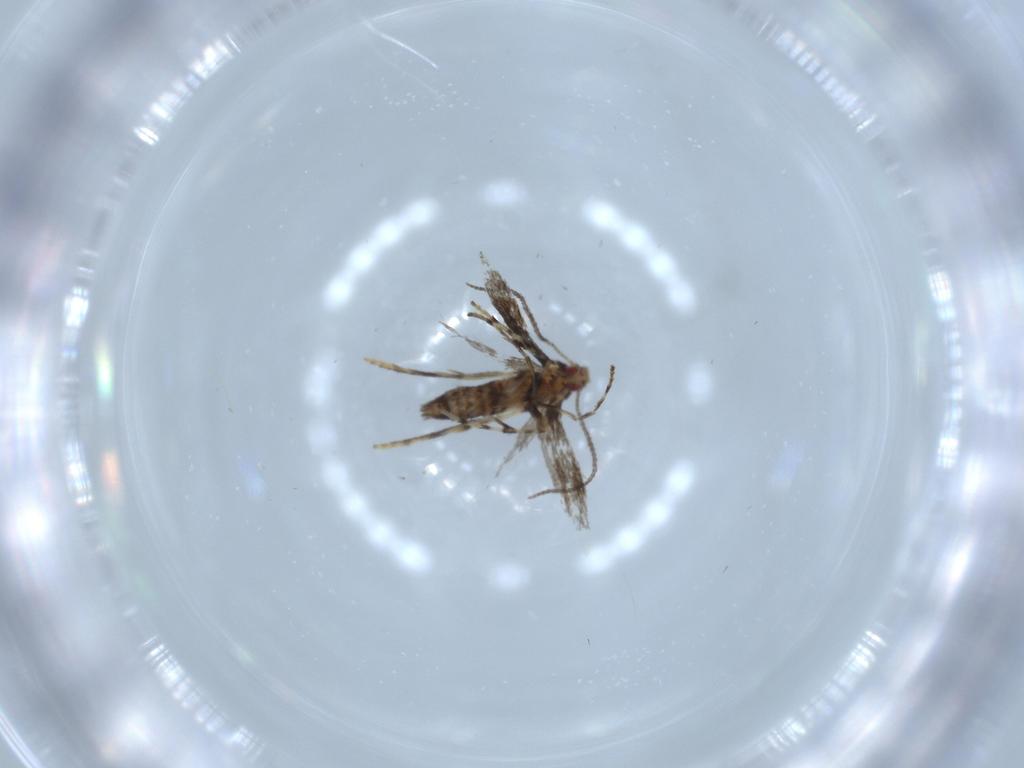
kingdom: Animalia
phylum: Arthropoda
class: Insecta
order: Lepidoptera
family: Gracillariidae
